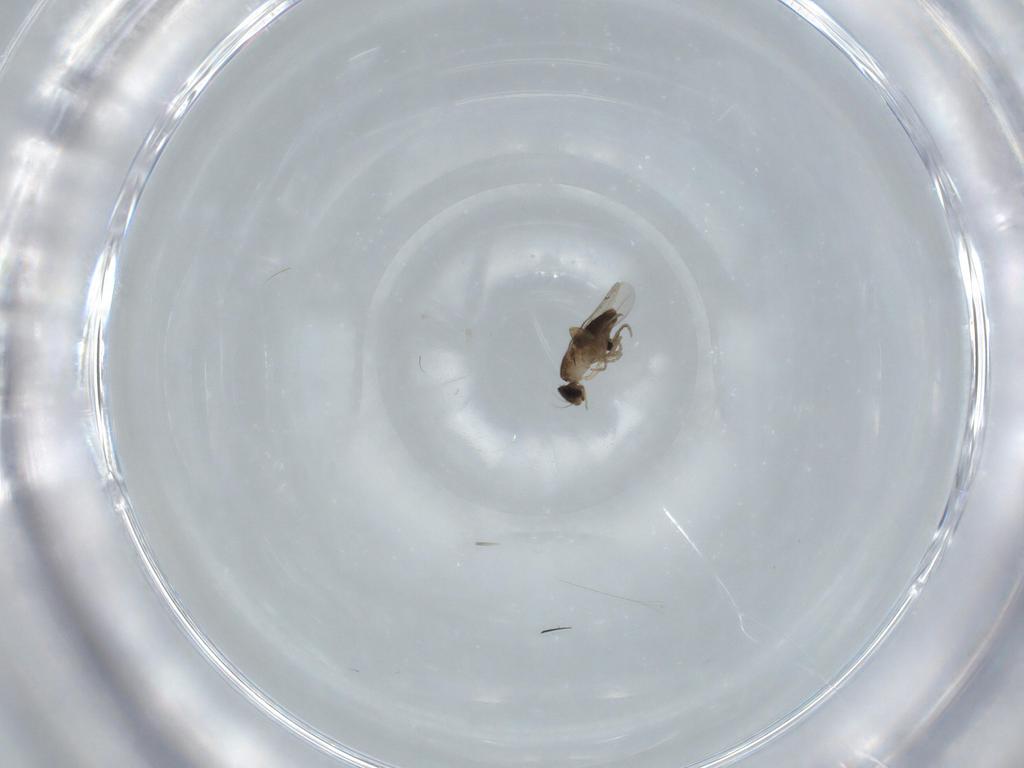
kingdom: Animalia
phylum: Arthropoda
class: Insecta
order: Diptera
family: Phoridae
